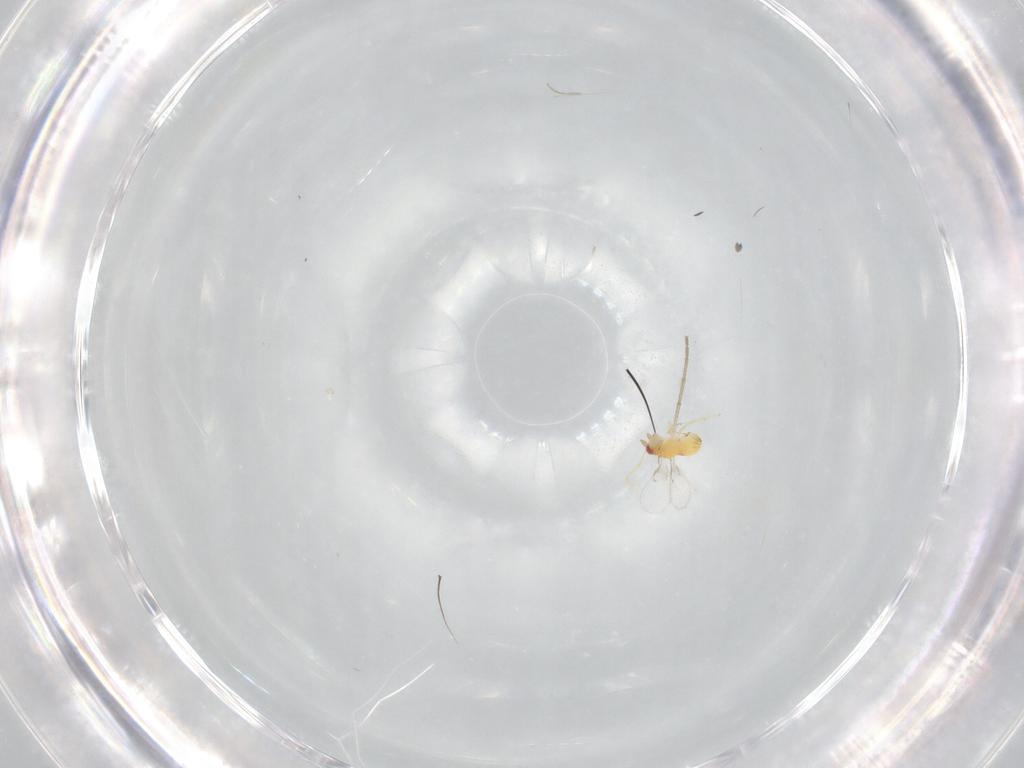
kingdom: Animalia
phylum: Arthropoda
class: Insecta
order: Hymenoptera
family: Trichogrammatidae
